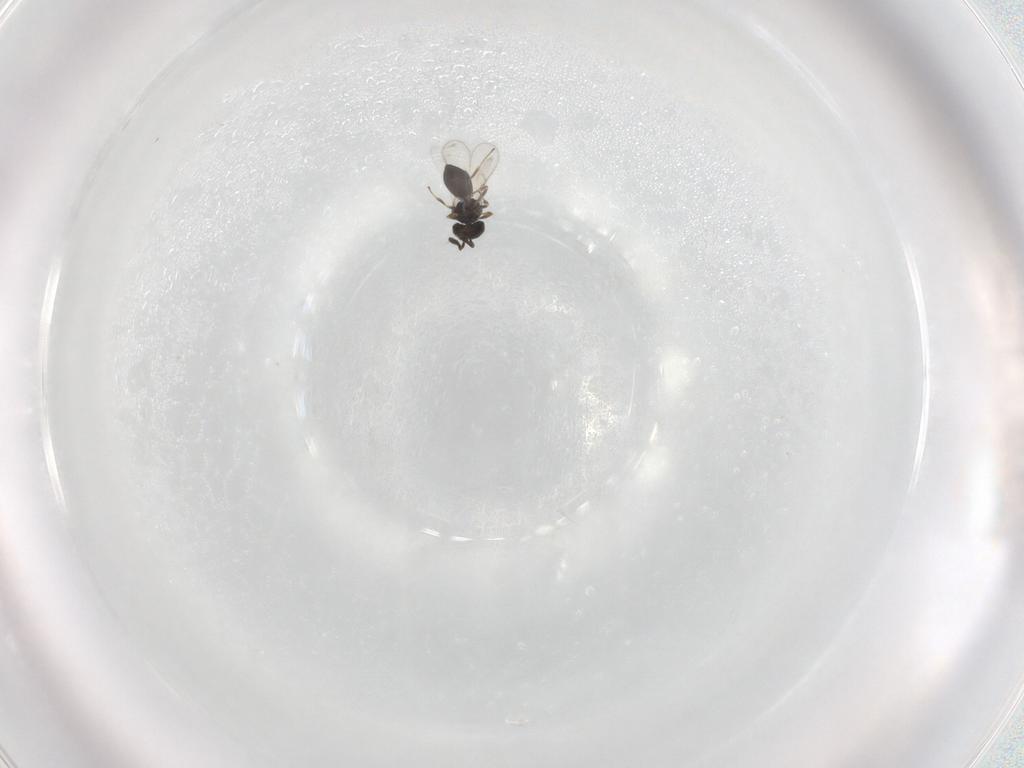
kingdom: Animalia
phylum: Arthropoda
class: Insecta
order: Hymenoptera
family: Scelionidae
